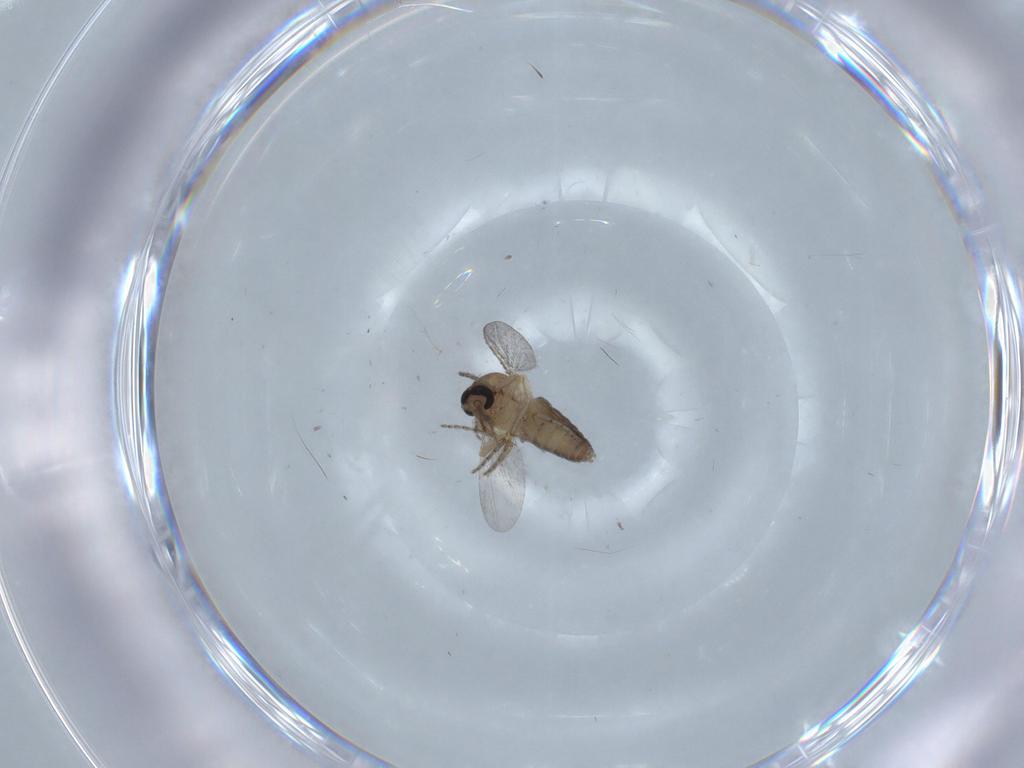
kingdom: Animalia
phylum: Arthropoda
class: Insecta
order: Diptera
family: Ceratopogonidae
